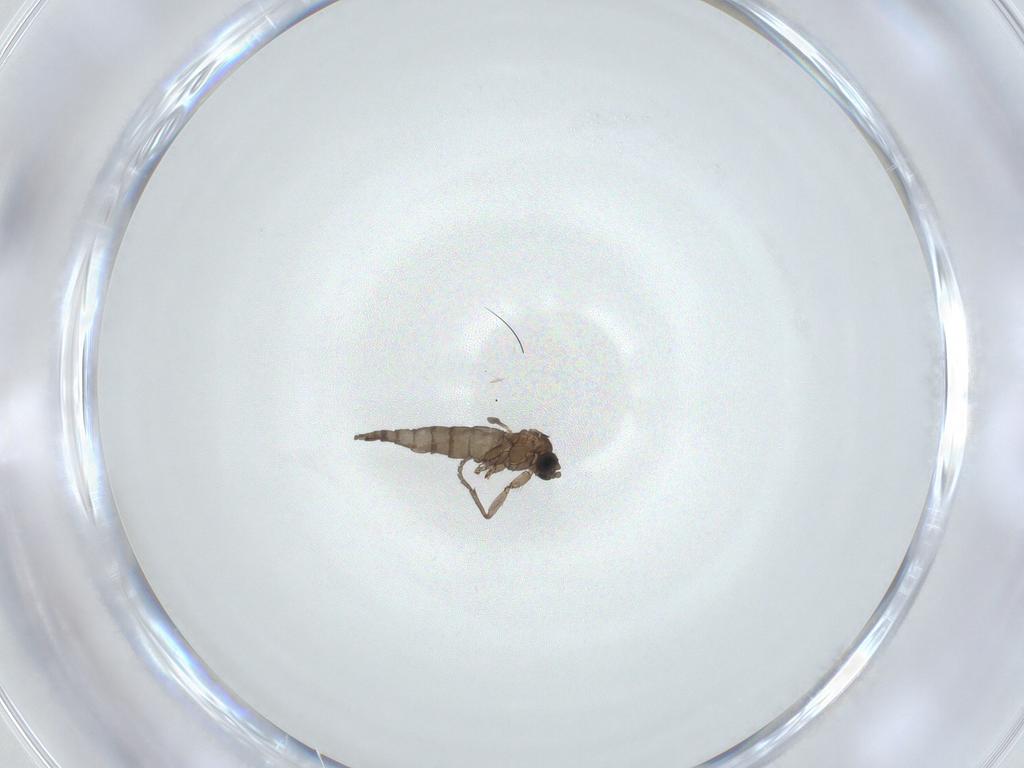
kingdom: Animalia
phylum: Arthropoda
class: Insecta
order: Diptera
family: Sciaridae
